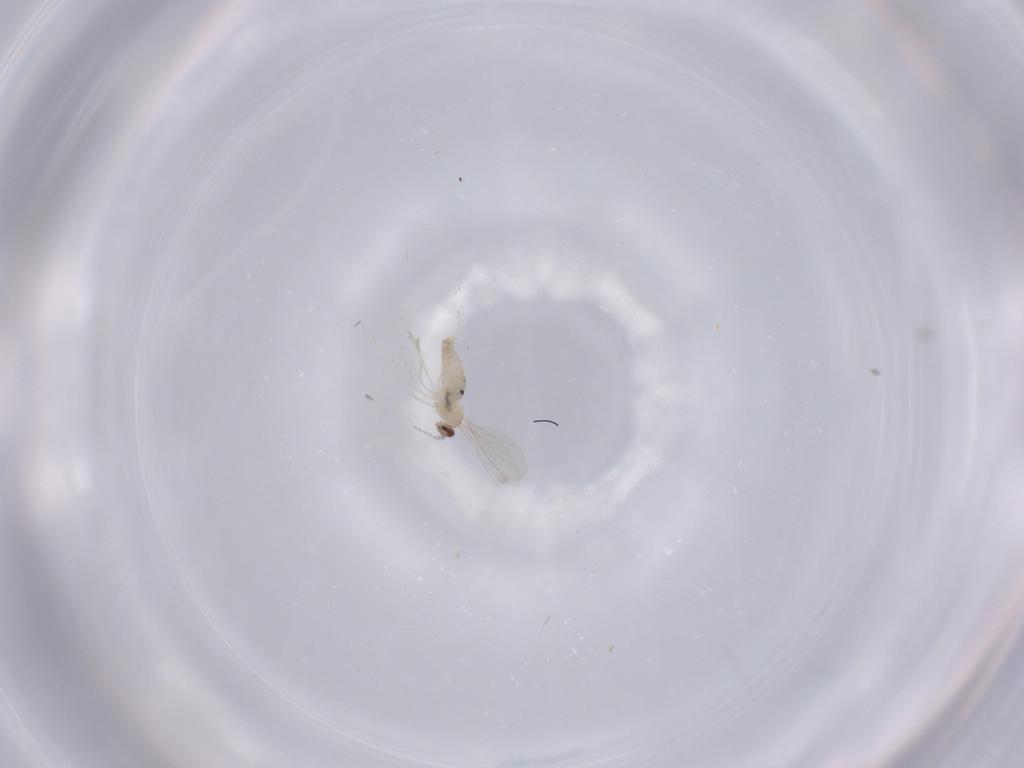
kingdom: Animalia
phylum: Arthropoda
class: Insecta
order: Diptera
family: Cecidomyiidae
